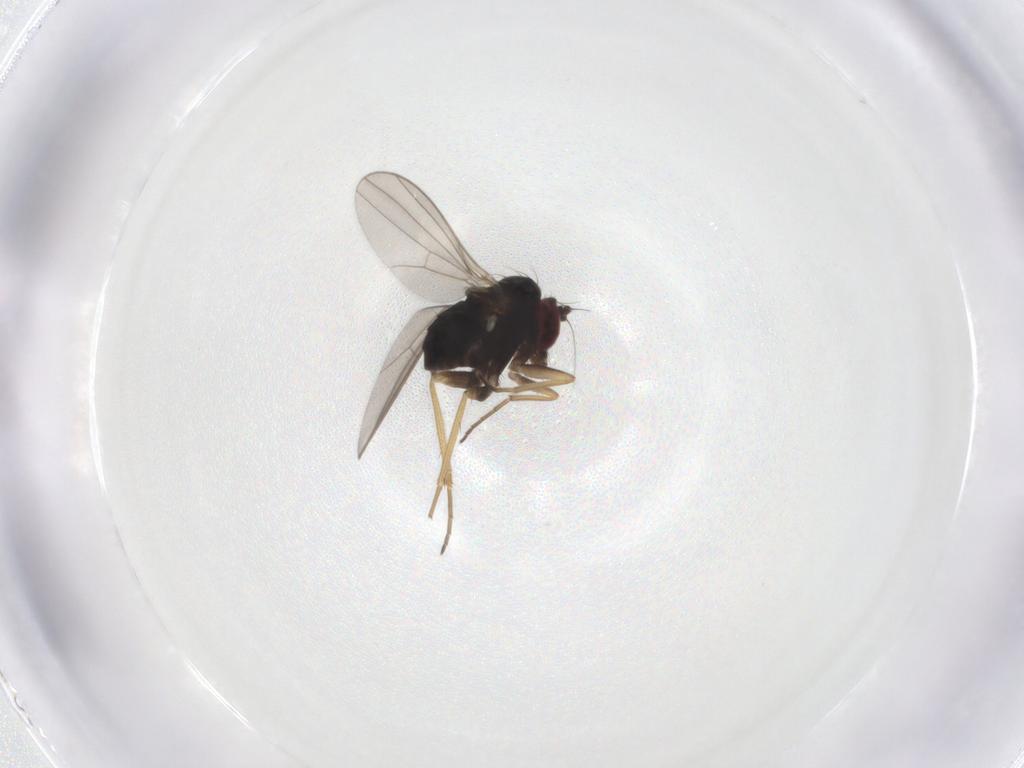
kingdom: Animalia
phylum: Arthropoda
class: Insecta
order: Diptera
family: Dolichopodidae
